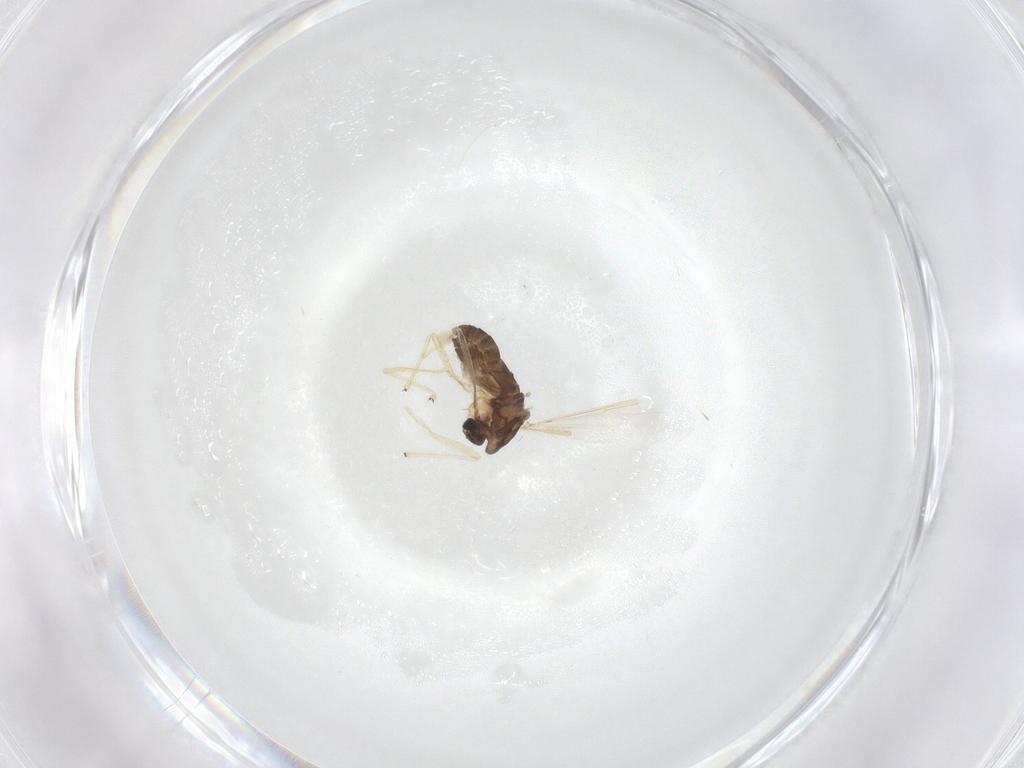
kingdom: Animalia
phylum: Arthropoda
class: Insecta
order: Diptera
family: Chironomidae
